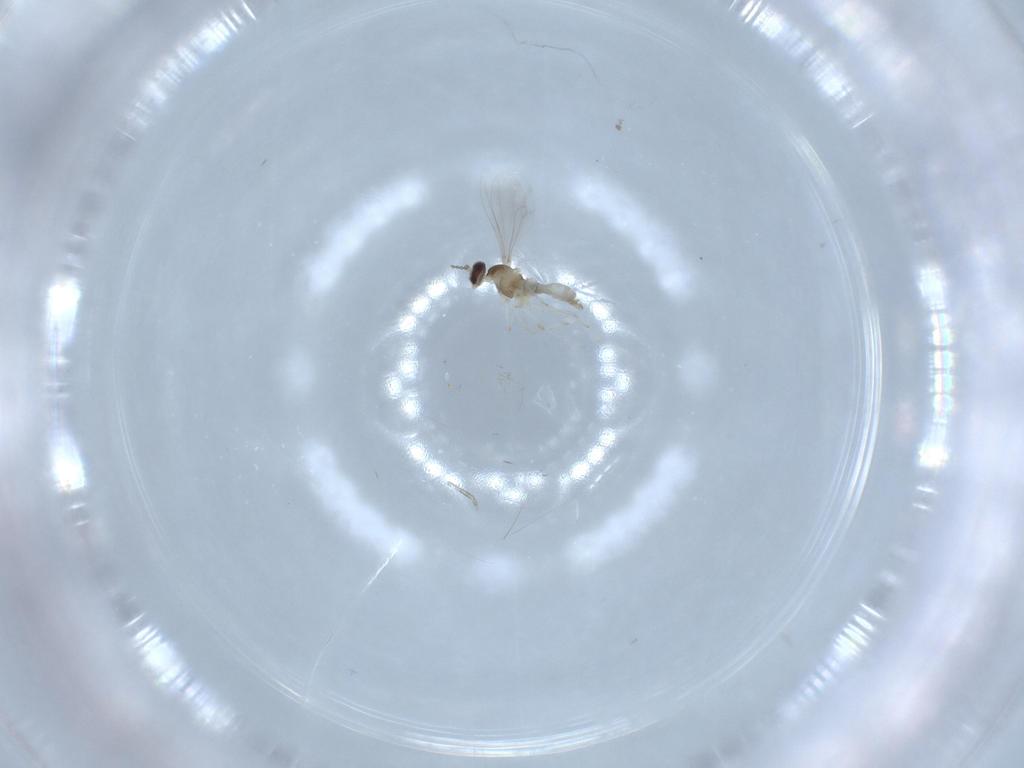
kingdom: Animalia
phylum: Arthropoda
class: Insecta
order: Diptera
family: Cecidomyiidae
